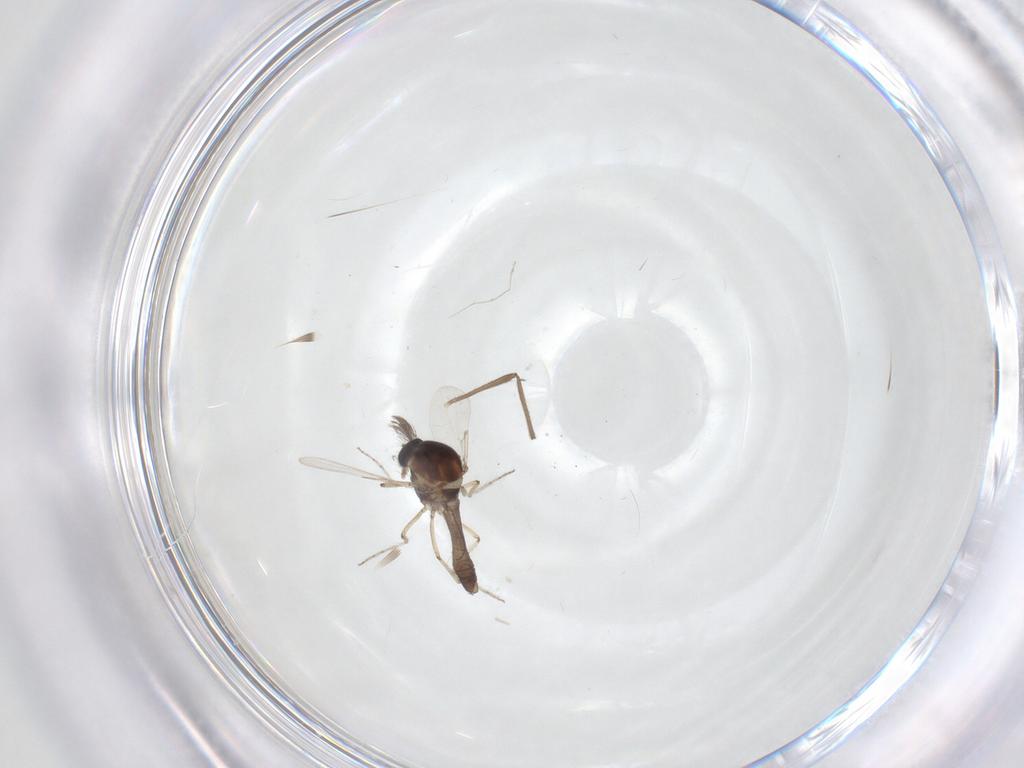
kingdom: Animalia
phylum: Arthropoda
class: Insecta
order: Diptera
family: Ceratopogonidae
